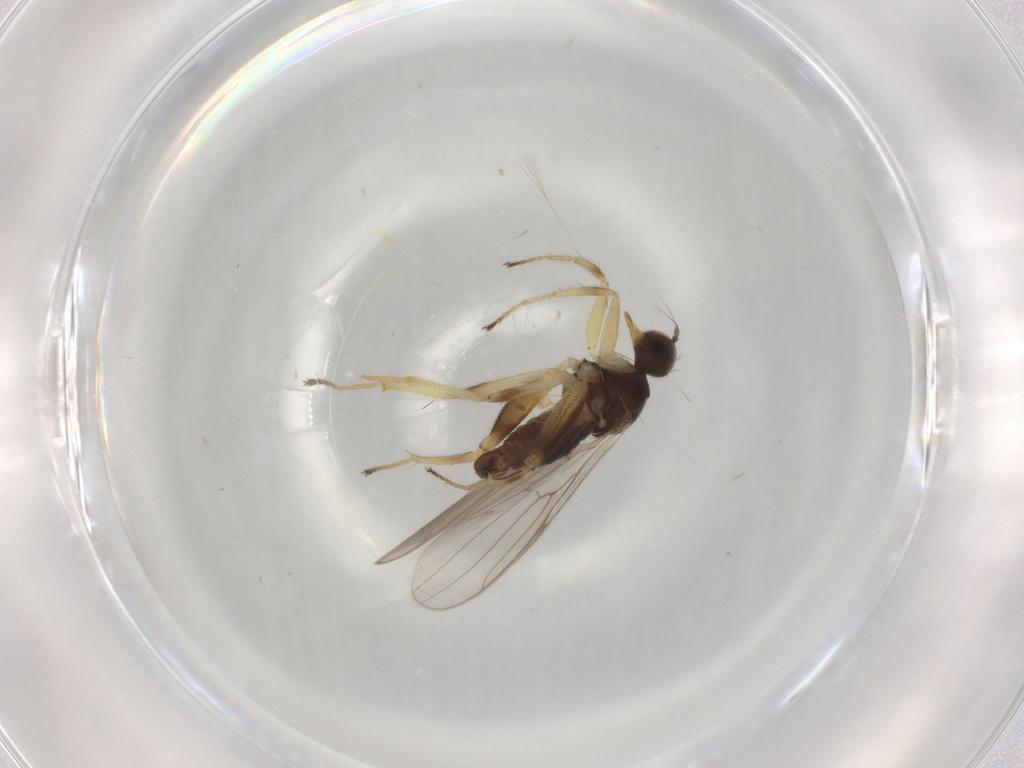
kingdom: Animalia
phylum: Arthropoda
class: Insecta
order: Diptera
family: Hybotidae
